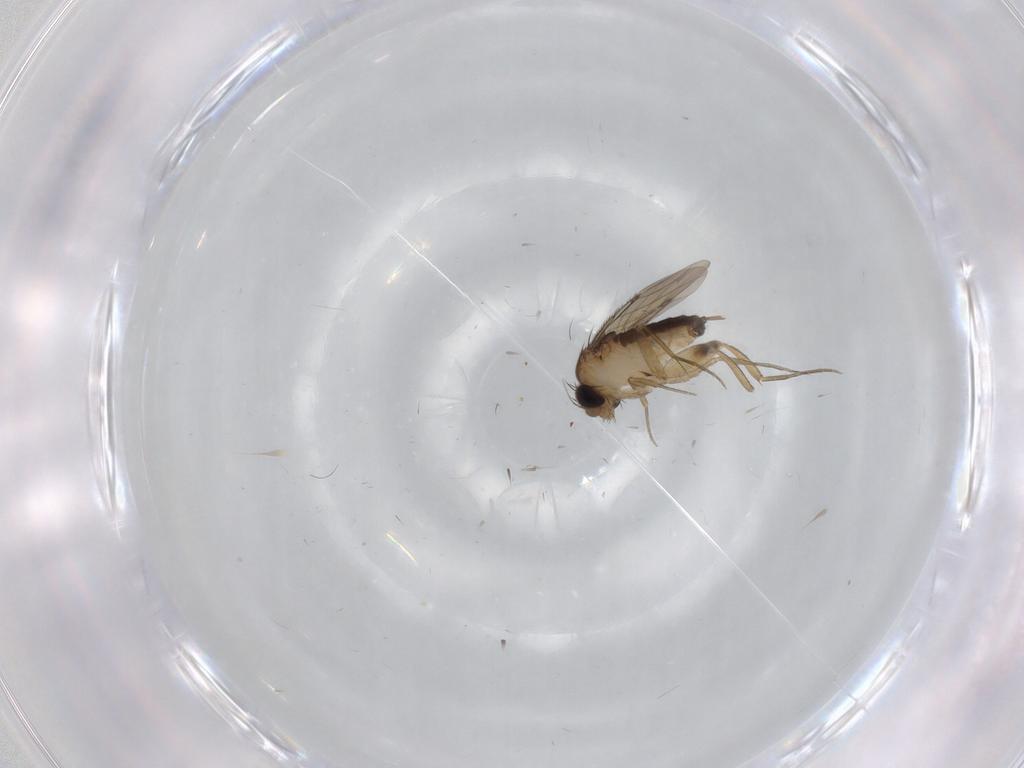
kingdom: Animalia
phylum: Arthropoda
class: Insecta
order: Diptera
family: Phoridae
